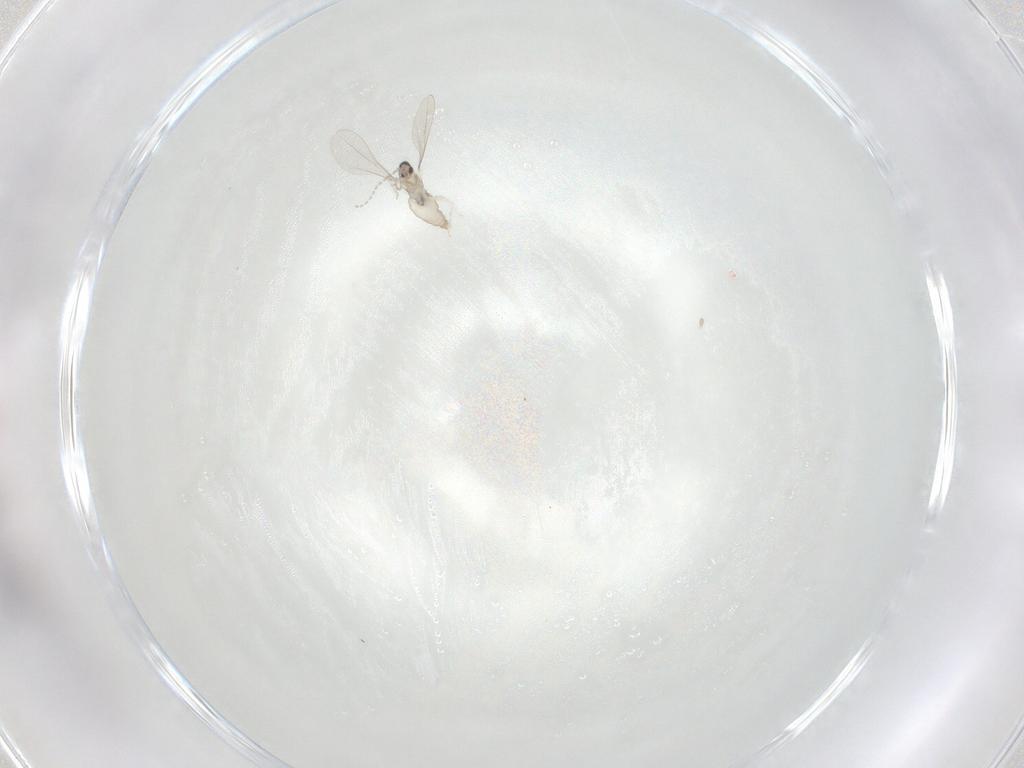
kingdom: Animalia
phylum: Arthropoda
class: Insecta
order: Diptera
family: Cecidomyiidae
